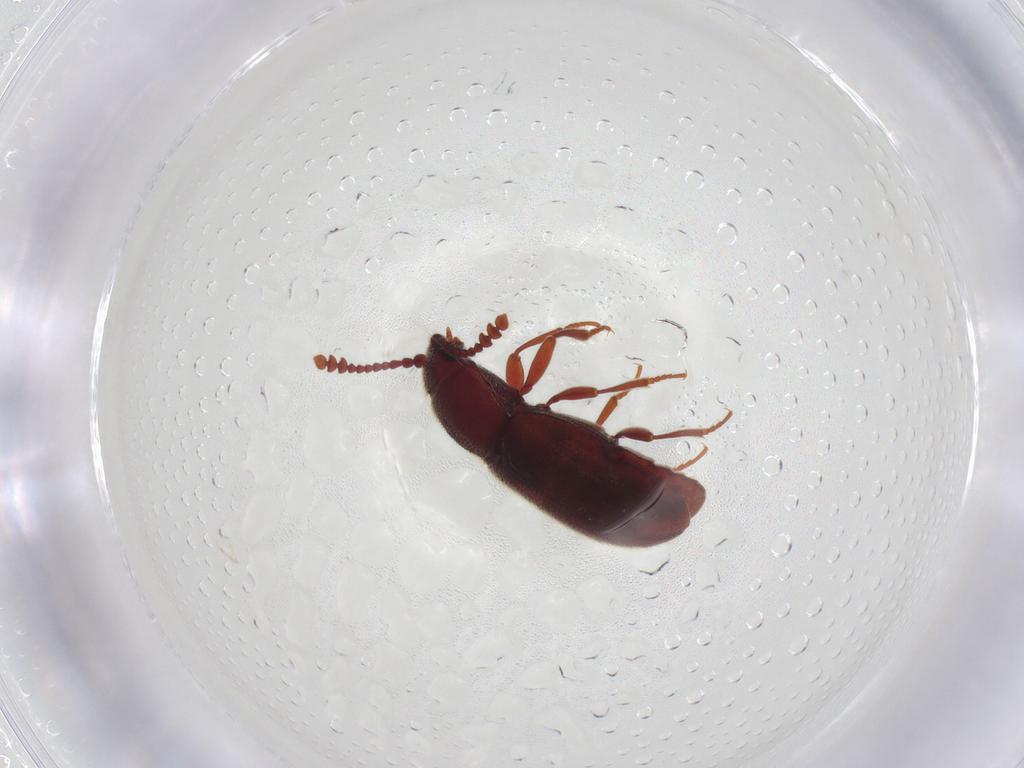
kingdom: Animalia
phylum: Arthropoda
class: Insecta
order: Coleoptera
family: Cryptophagidae
